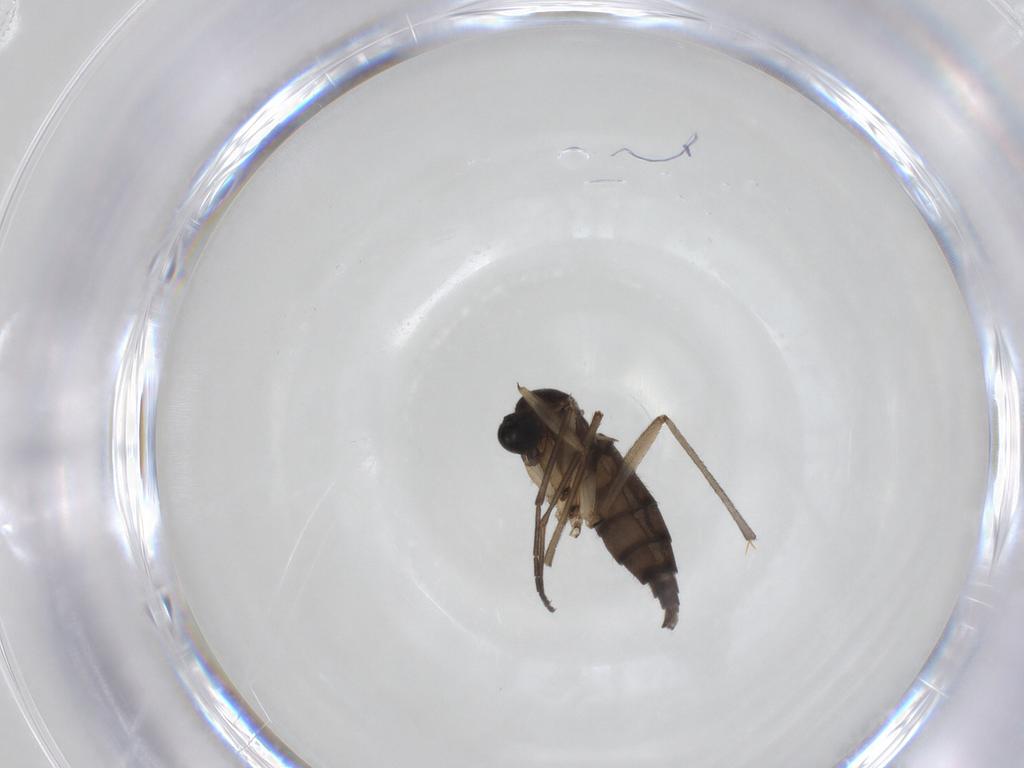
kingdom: Animalia
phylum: Arthropoda
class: Insecta
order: Diptera
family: Sciaridae
